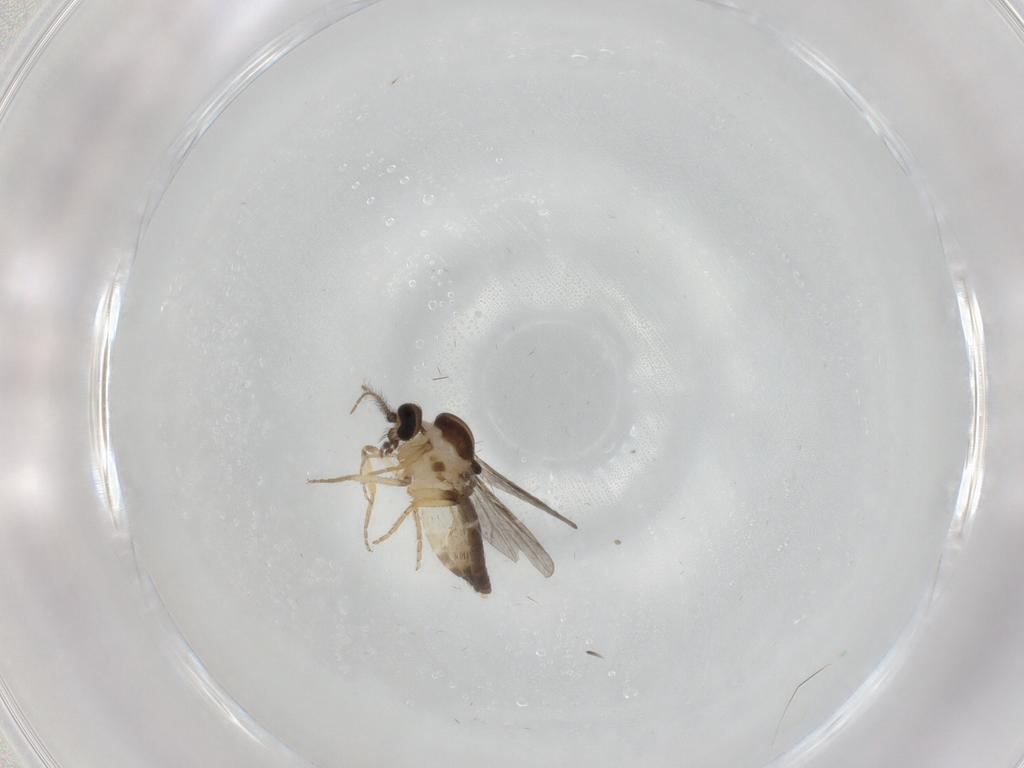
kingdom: Animalia
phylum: Arthropoda
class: Insecta
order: Diptera
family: Ceratopogonidae
